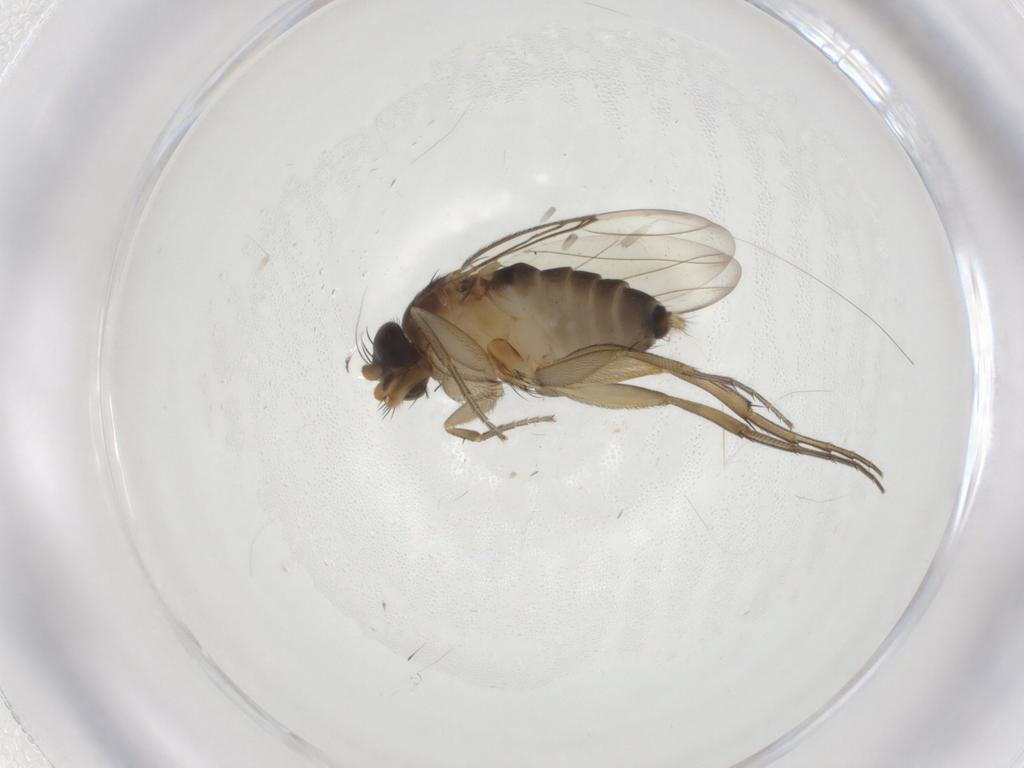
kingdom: Animalia
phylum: Arthropoda
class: Insecta
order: Diptera
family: Phoridae
